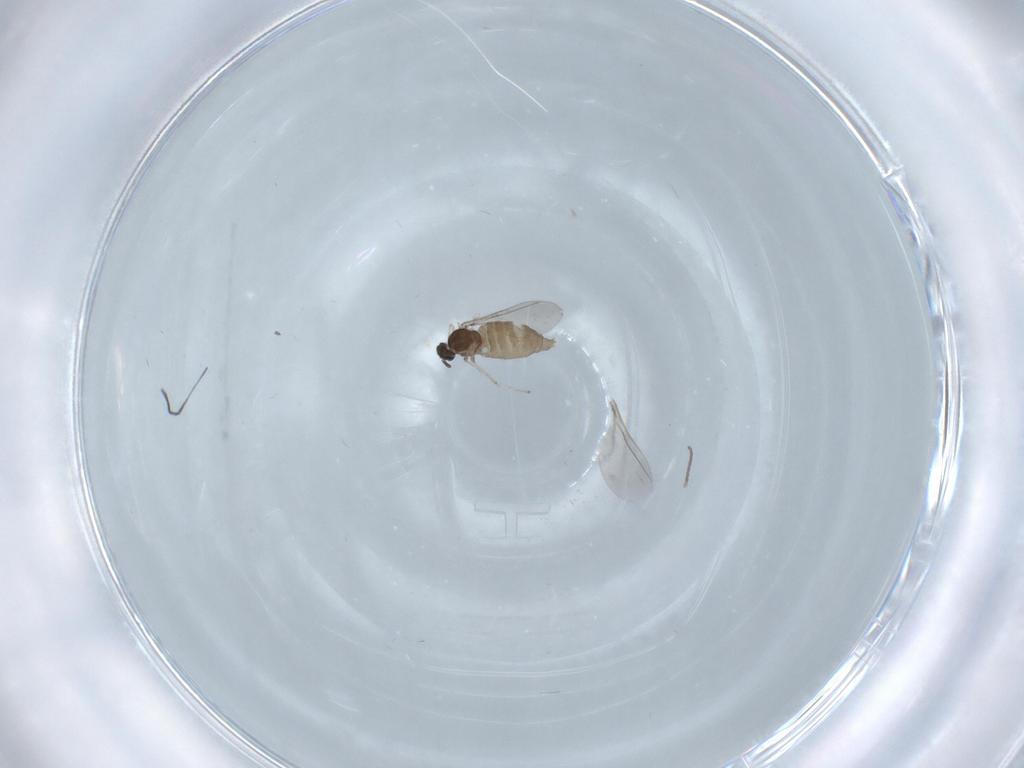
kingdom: Animalia
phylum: Arthropoda
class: Insecta
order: Diptera
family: Cecidomyiidae
